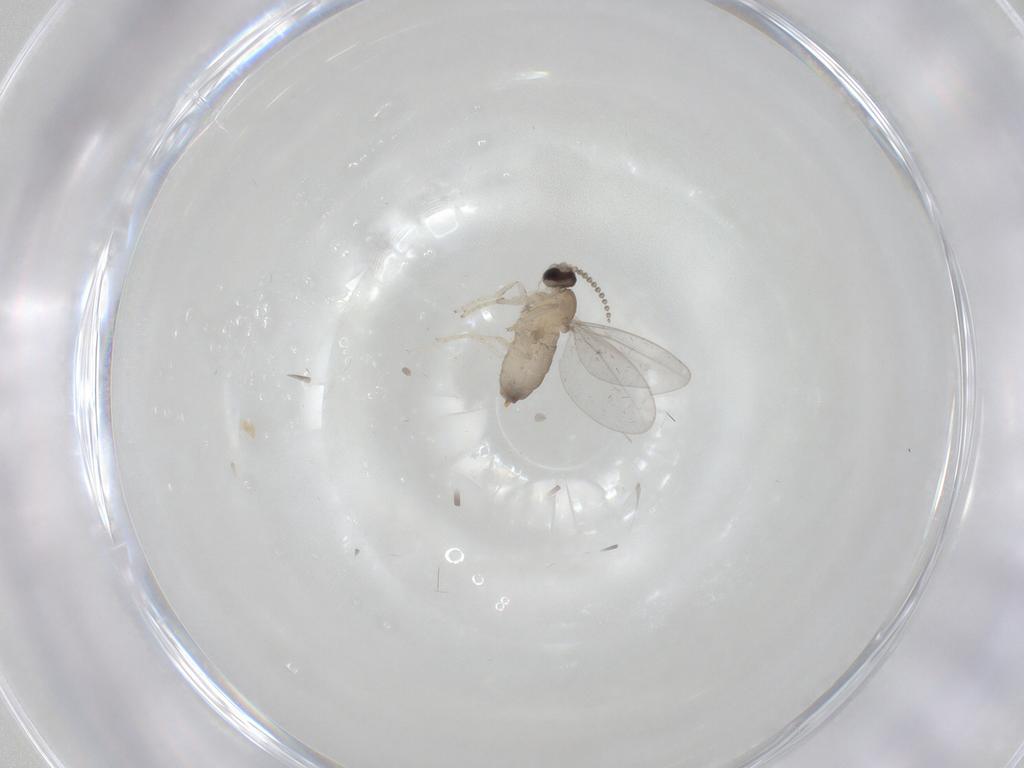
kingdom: Animalia
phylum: Arthropoda
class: Insecta
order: Diptera
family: Cecidomyiidae
